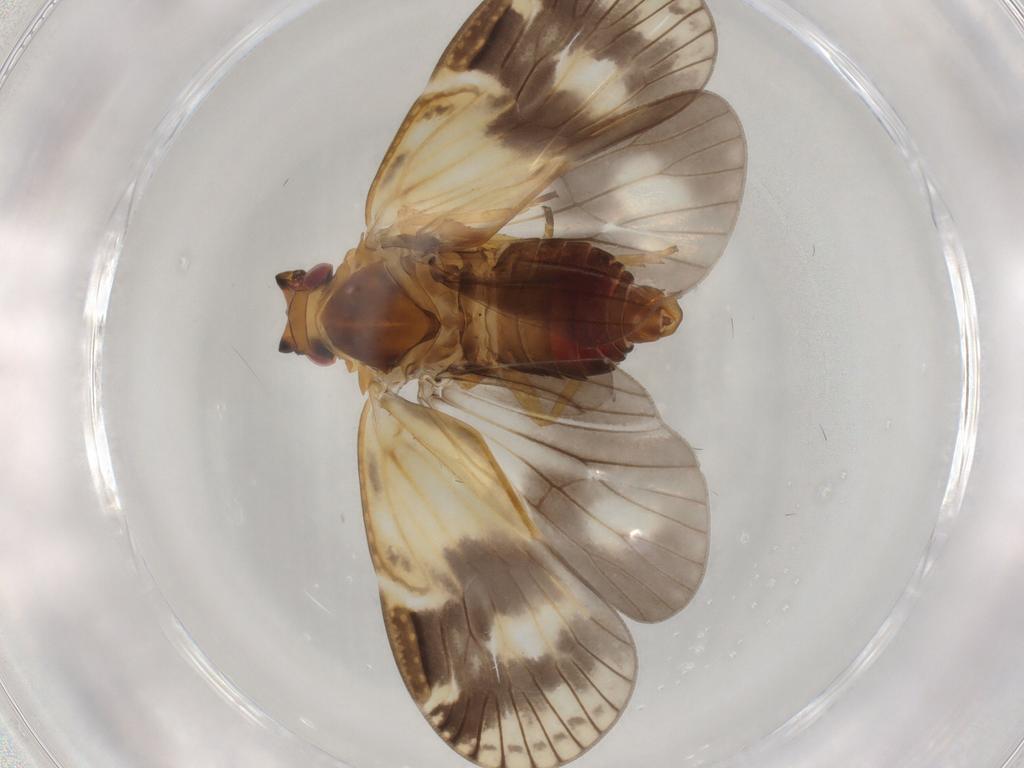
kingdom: Animalia
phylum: Arthropoda
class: Insecta
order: Hemiptera
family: Cixiidae
